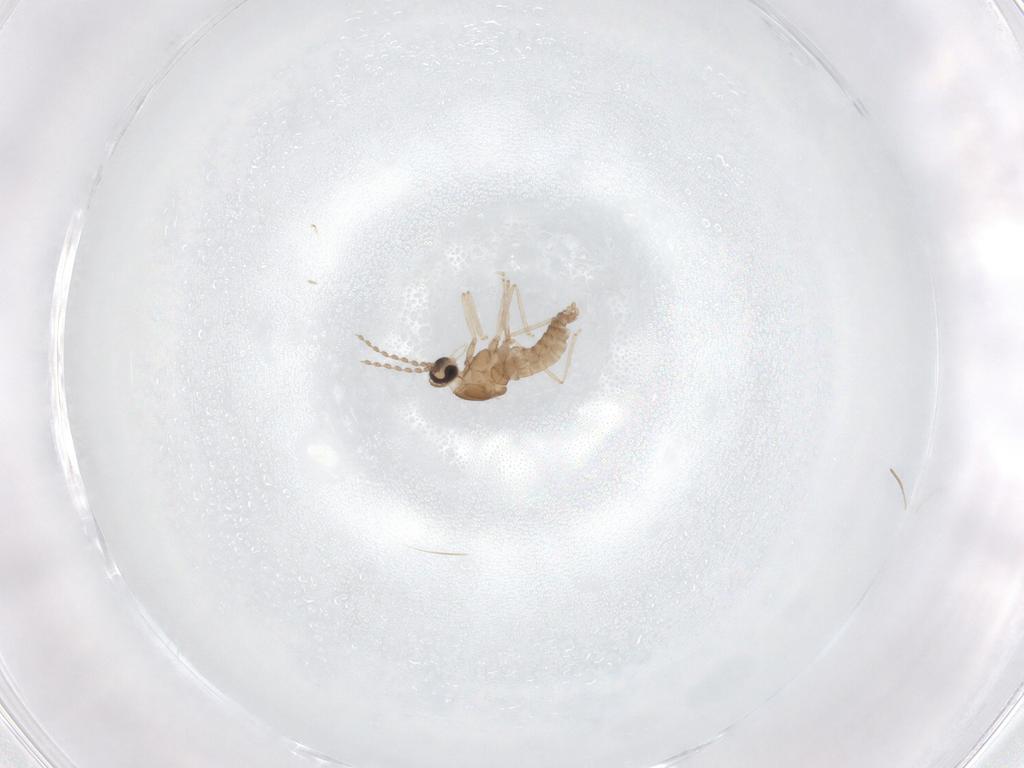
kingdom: Animalia
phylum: Arthropoda
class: Insecta
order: Diptera
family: Cecidomyiidae
